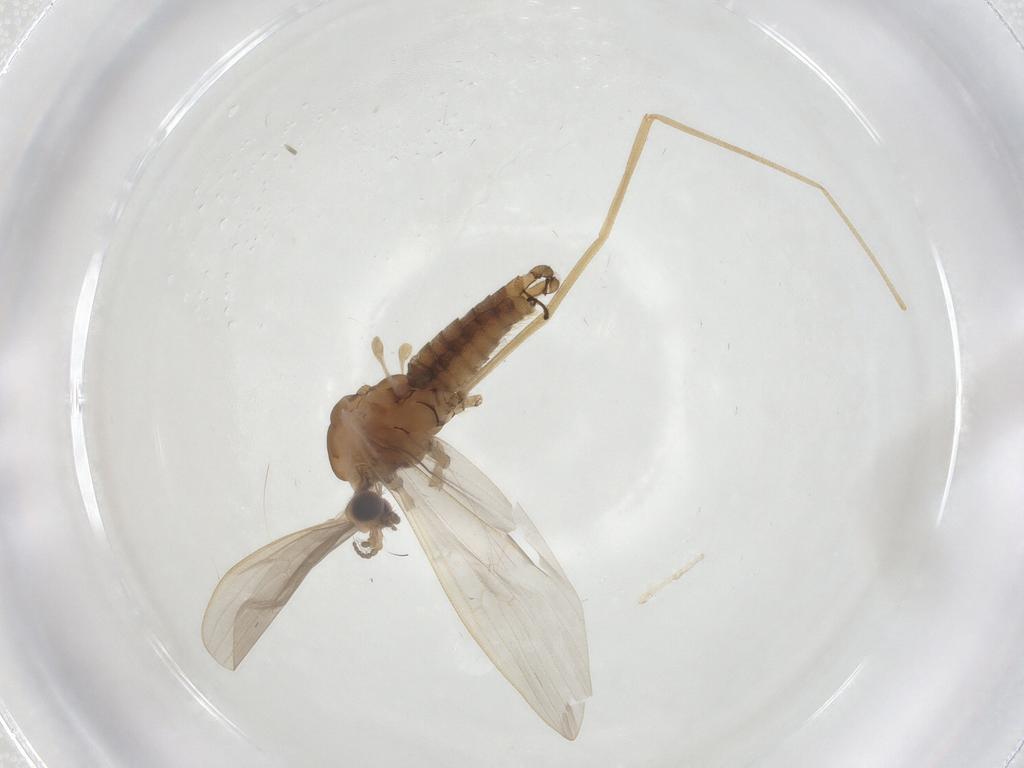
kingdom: Animalia
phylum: Arthropoda
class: Insecta
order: Diptera
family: Limoniidae
